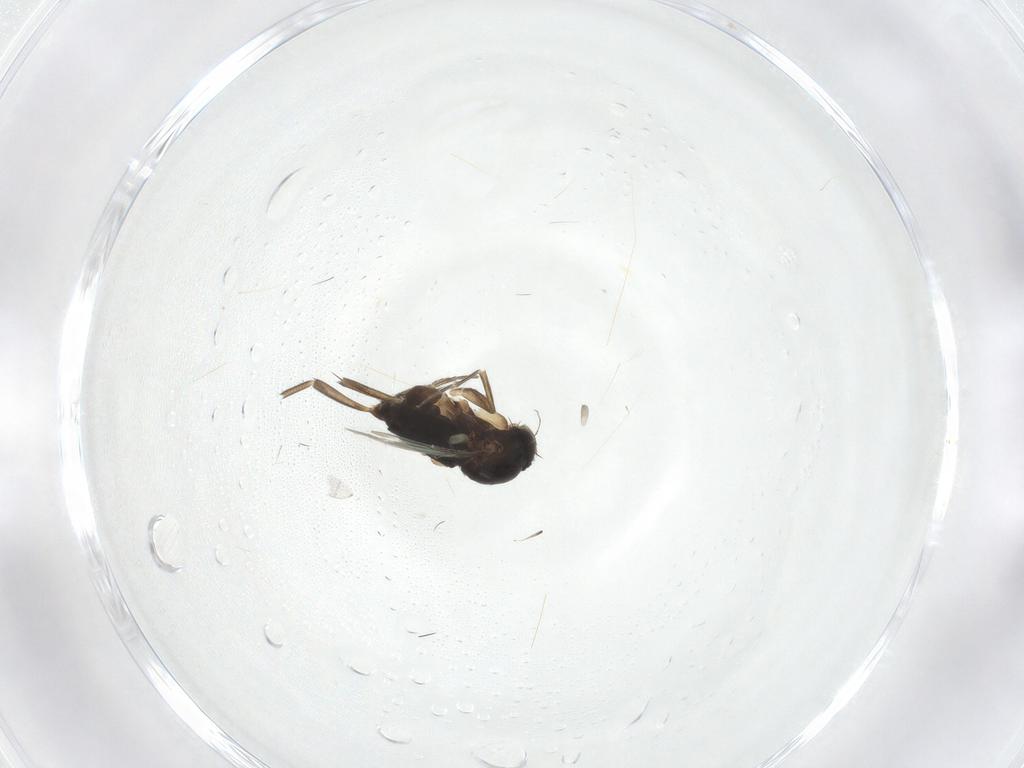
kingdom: Animalia
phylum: Arthropoda
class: Insecta
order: Diptera
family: Phoridae
